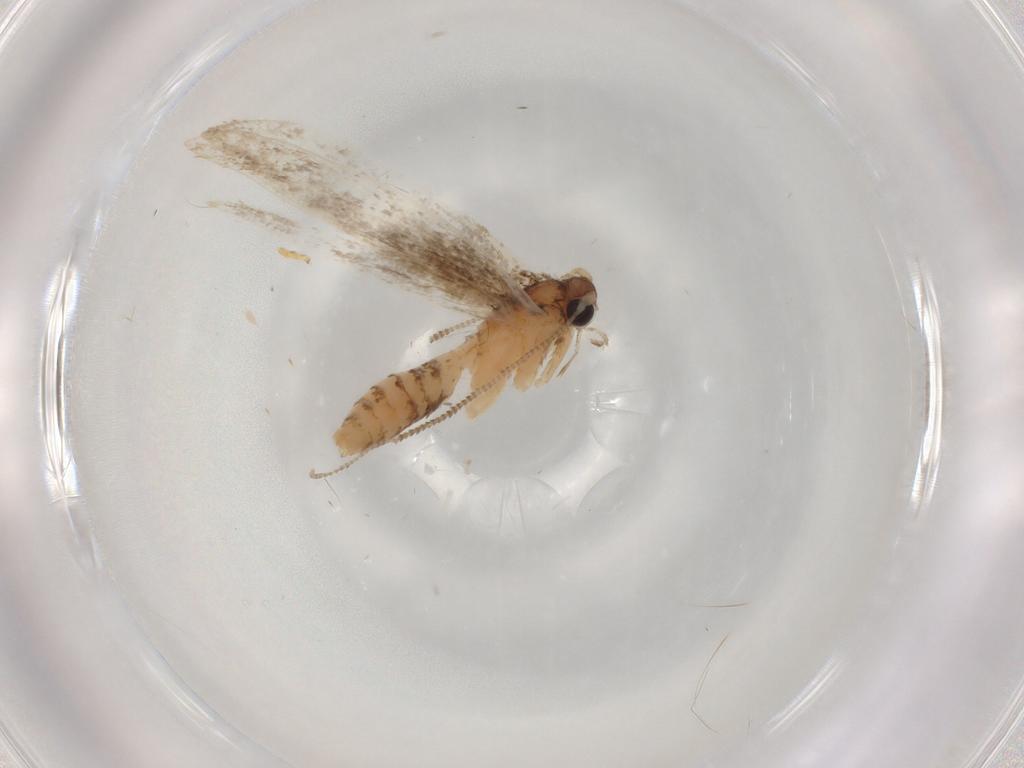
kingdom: Animalia
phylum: Arthropoda
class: Insecta
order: Lepidoptera
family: Tineidae
